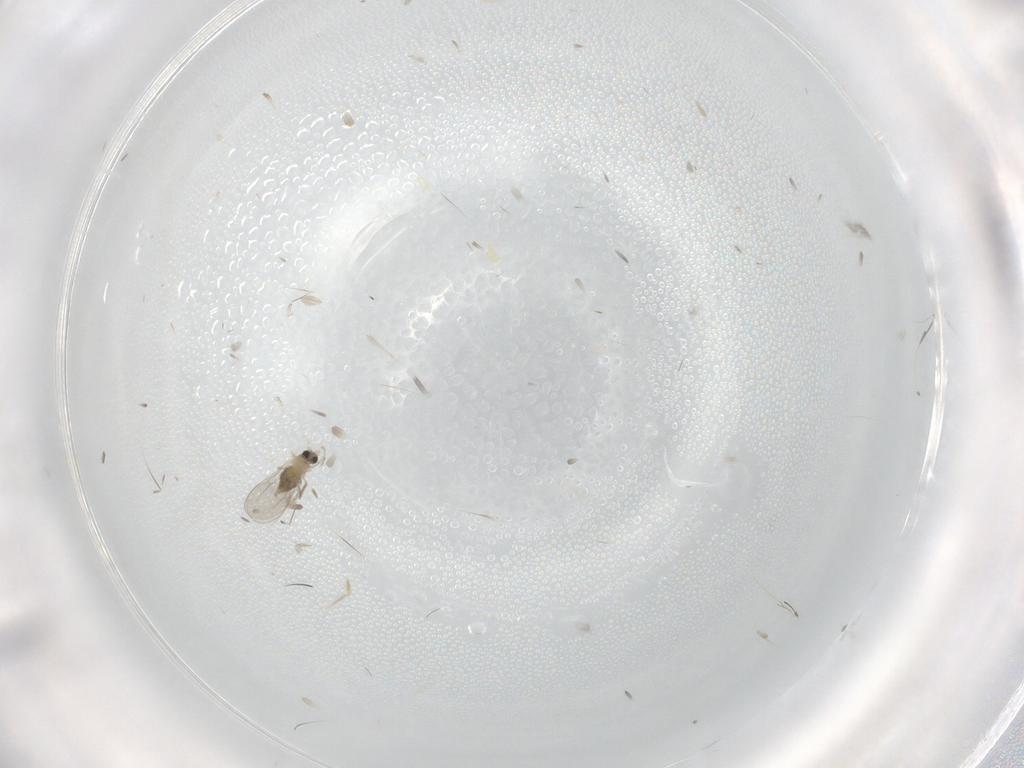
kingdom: Animalia
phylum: Arthropoda
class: Insecta
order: Diptera
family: Cecidomyiidae
